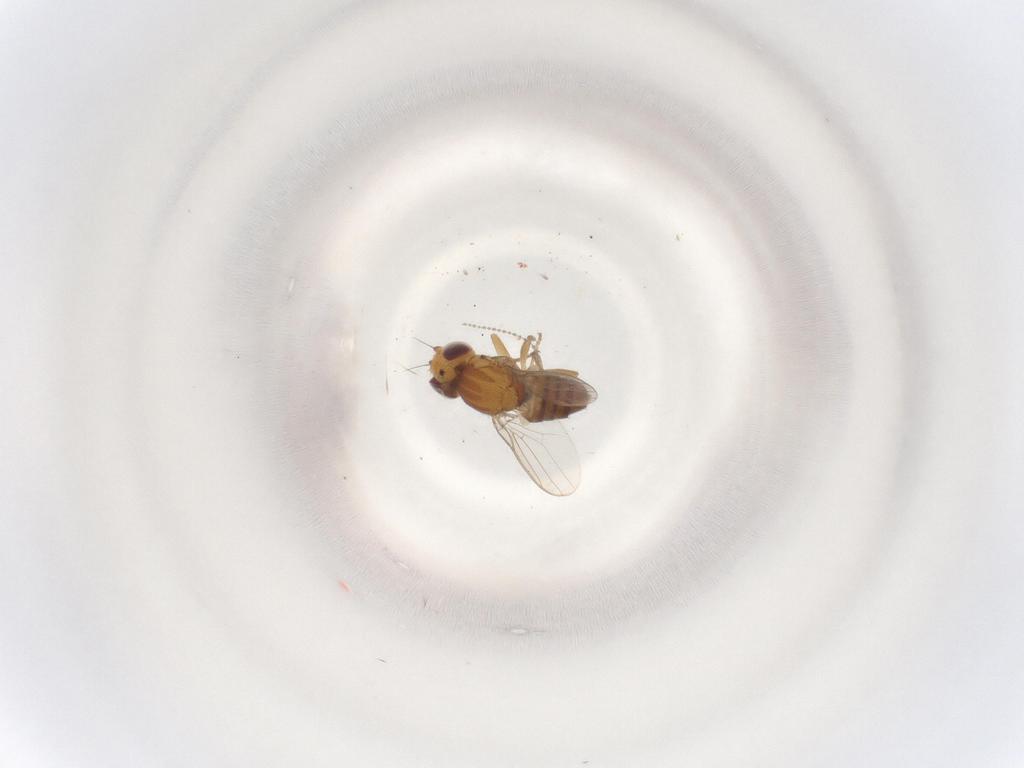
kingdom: Animalia
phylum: Arthropoda
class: Insecta
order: Diptera
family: Chloropidae
